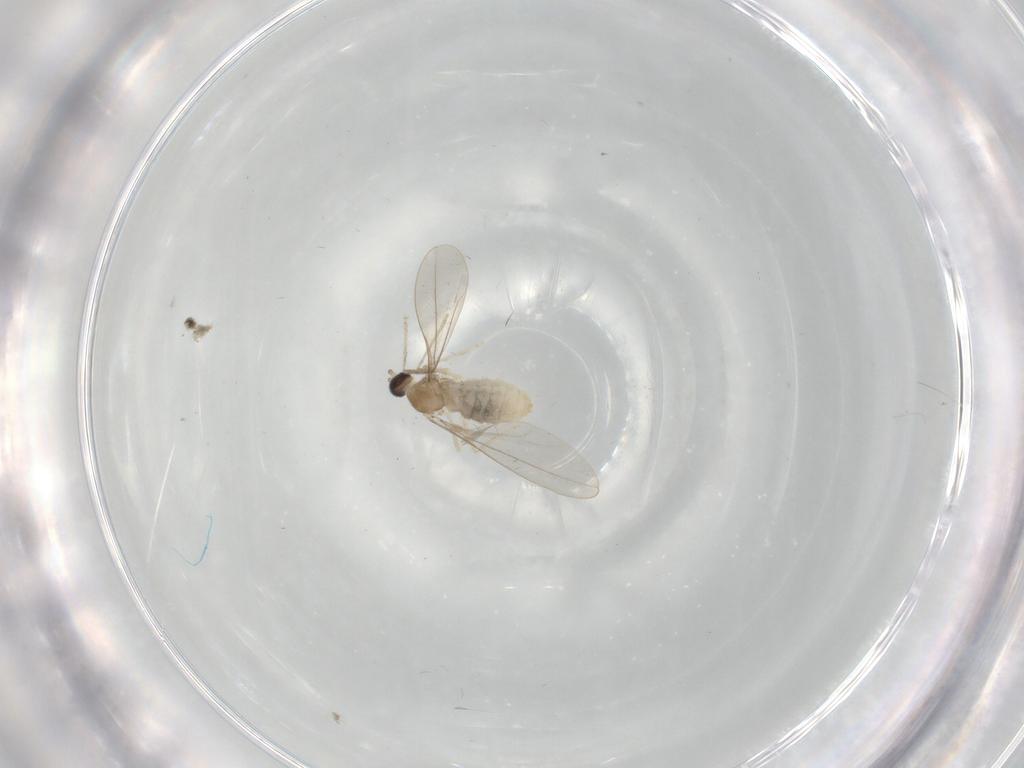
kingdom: Animalia
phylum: Arthropoda
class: Insecta
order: Diptera
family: Cecidomyiidae
